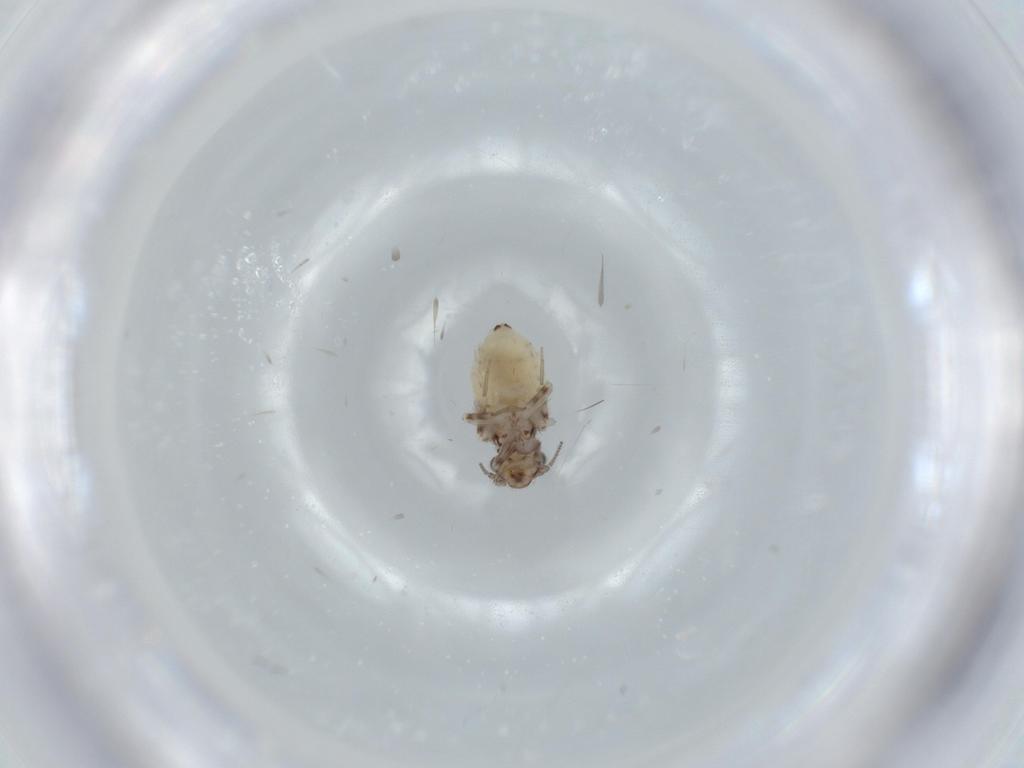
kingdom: Animalia
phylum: Arthropoda
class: Insecta
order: Psocodea
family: Lepidopsocidae
